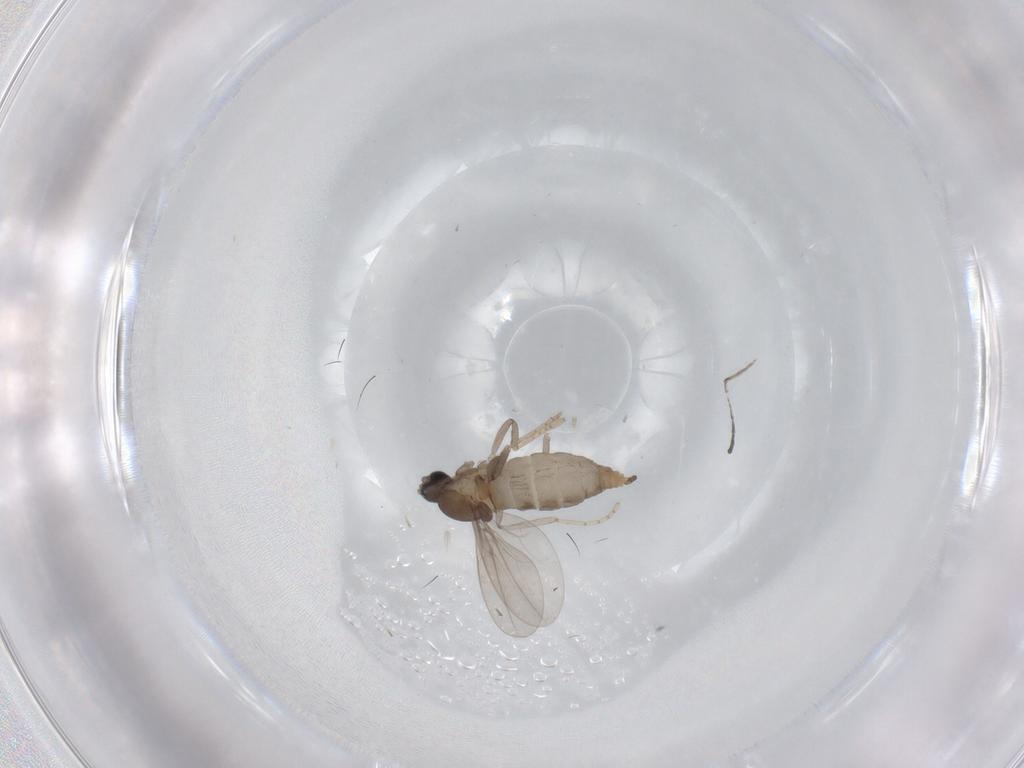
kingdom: Animalia
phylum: Arthropoda
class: Insecta
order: Diptera
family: Cecidomyiidae
